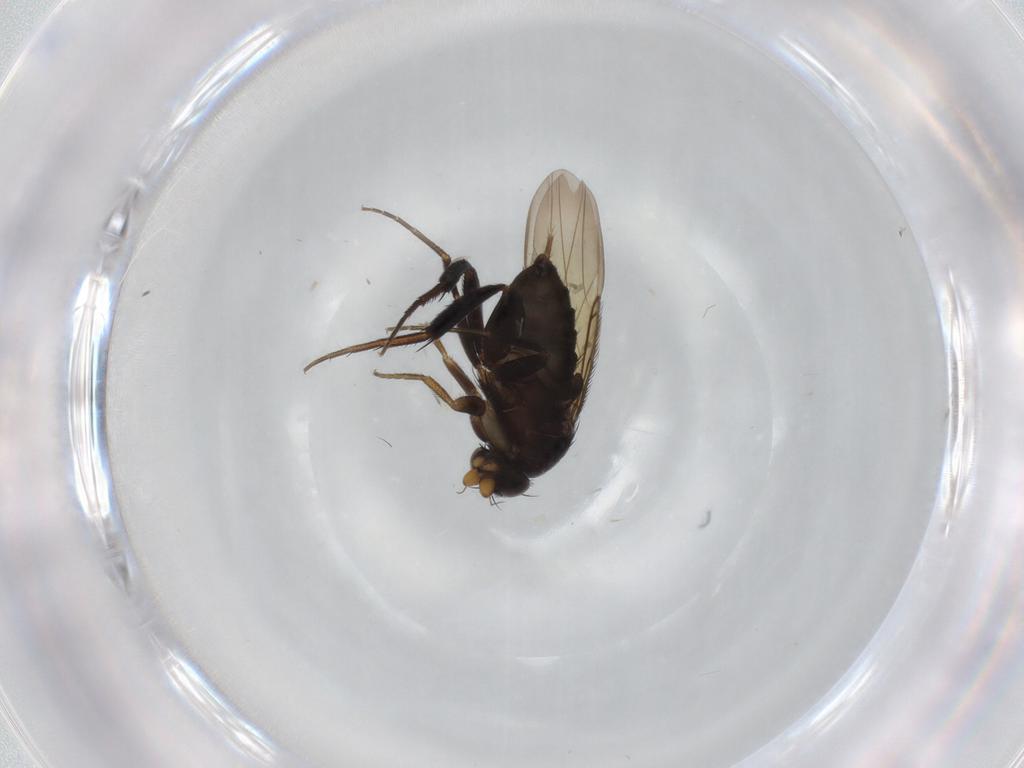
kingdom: Animalia
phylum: Arthropoda
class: Insecta
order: Diptera
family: Phoridae
